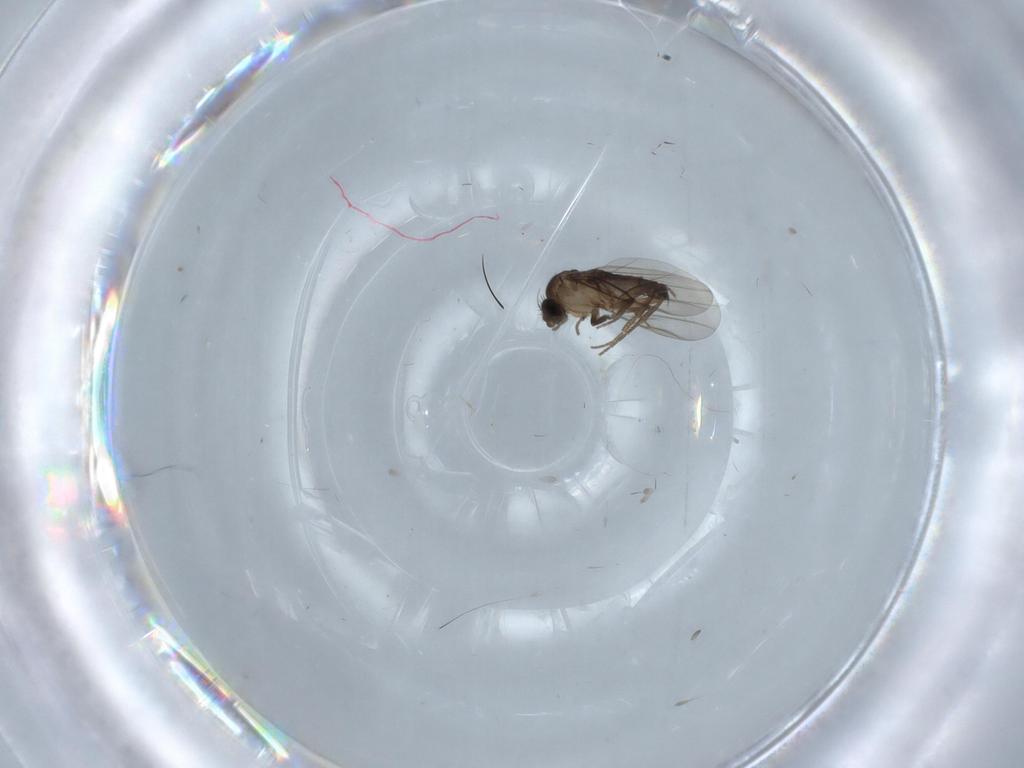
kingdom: Animalia
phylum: Arthropoda
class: Insecta
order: Diptera
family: Phoridae
